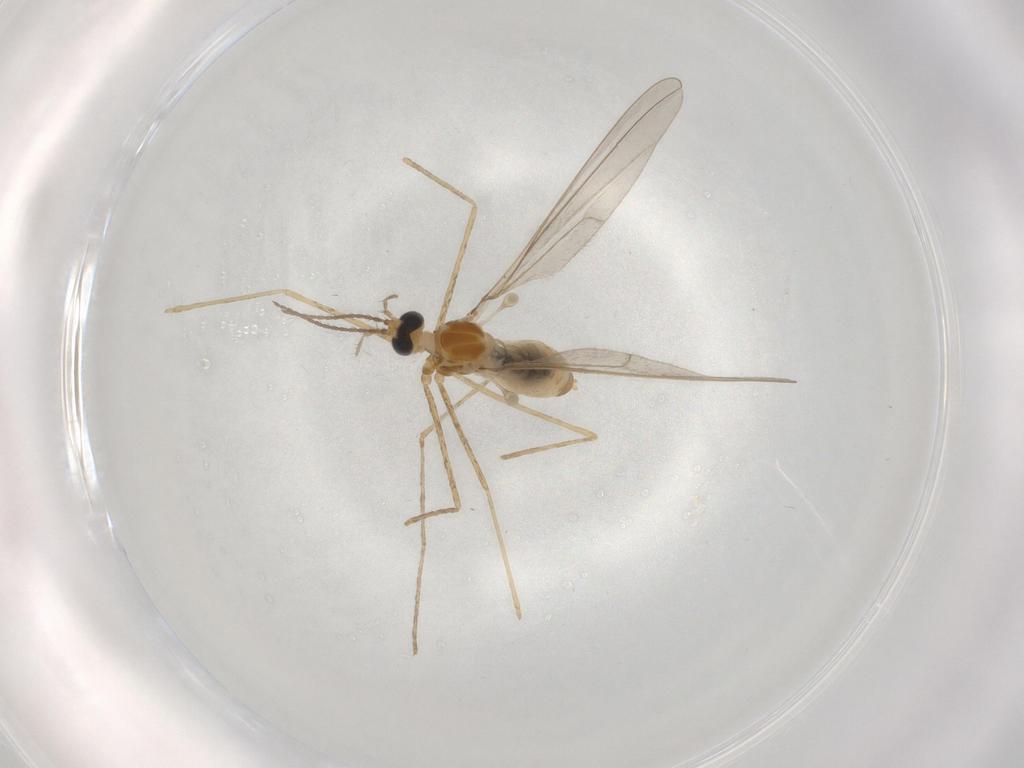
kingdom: Animalia
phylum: Arthropoda
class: Insecta
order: Diptera
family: Cecidomyiidae
